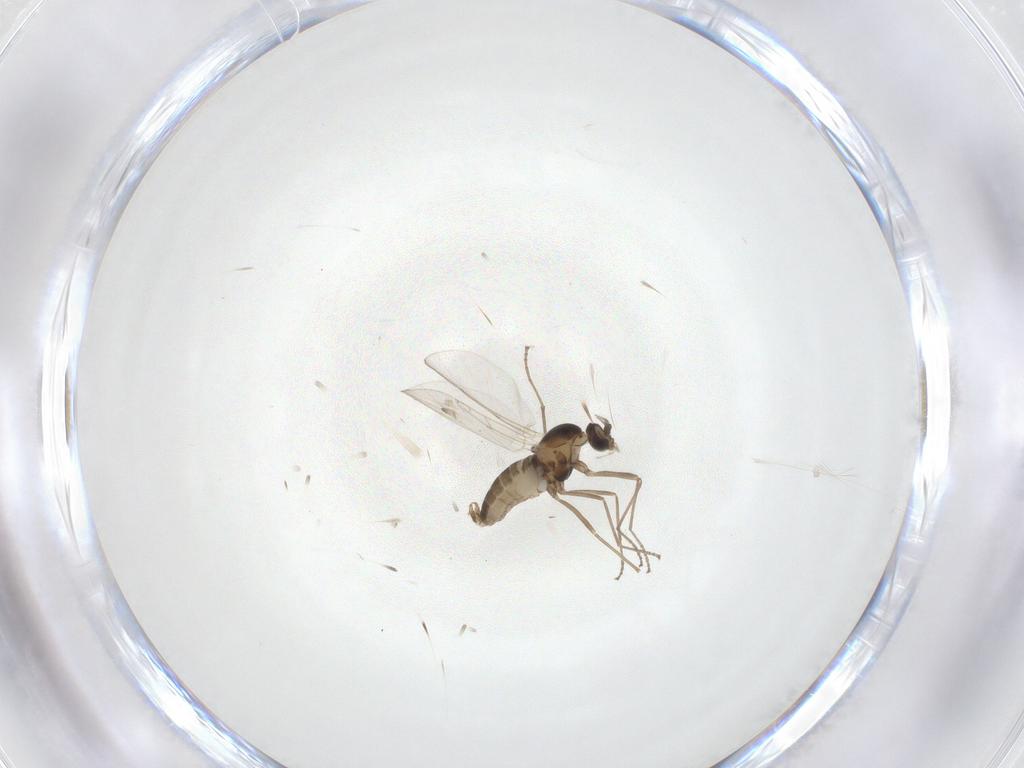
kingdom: Animalia
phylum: Arthropoda
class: Insecta
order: Diptera
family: Cecidomyiidae
